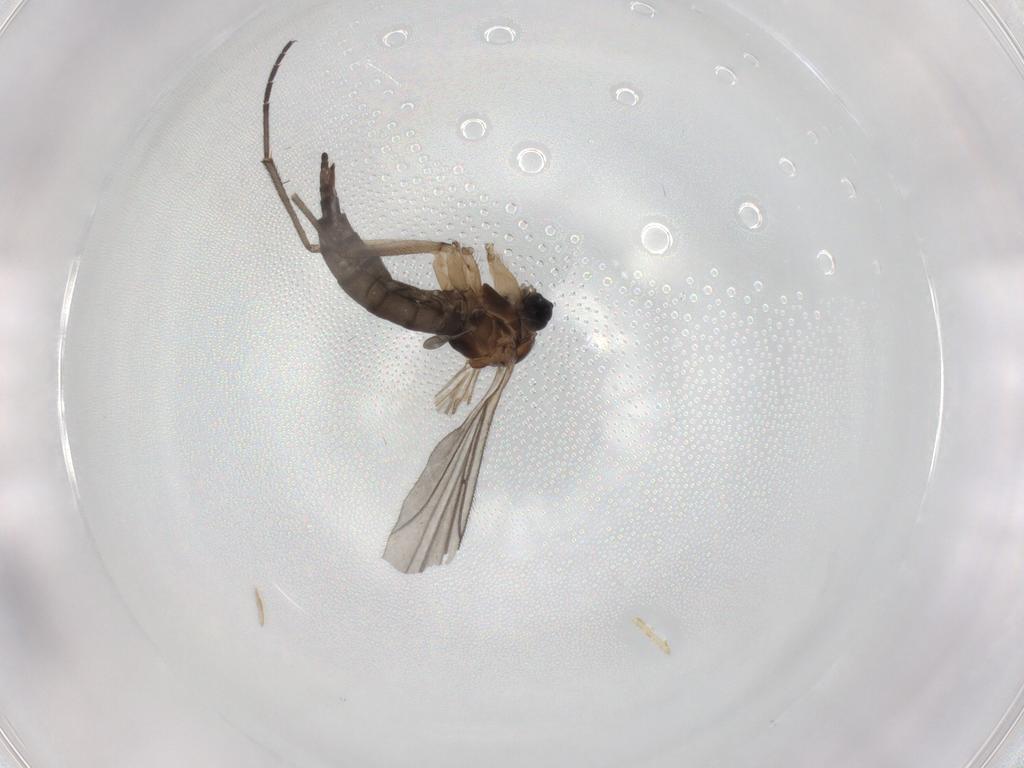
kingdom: Animalia
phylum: Arthropoda
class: Insecta
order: Diptera
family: Sciaridae
